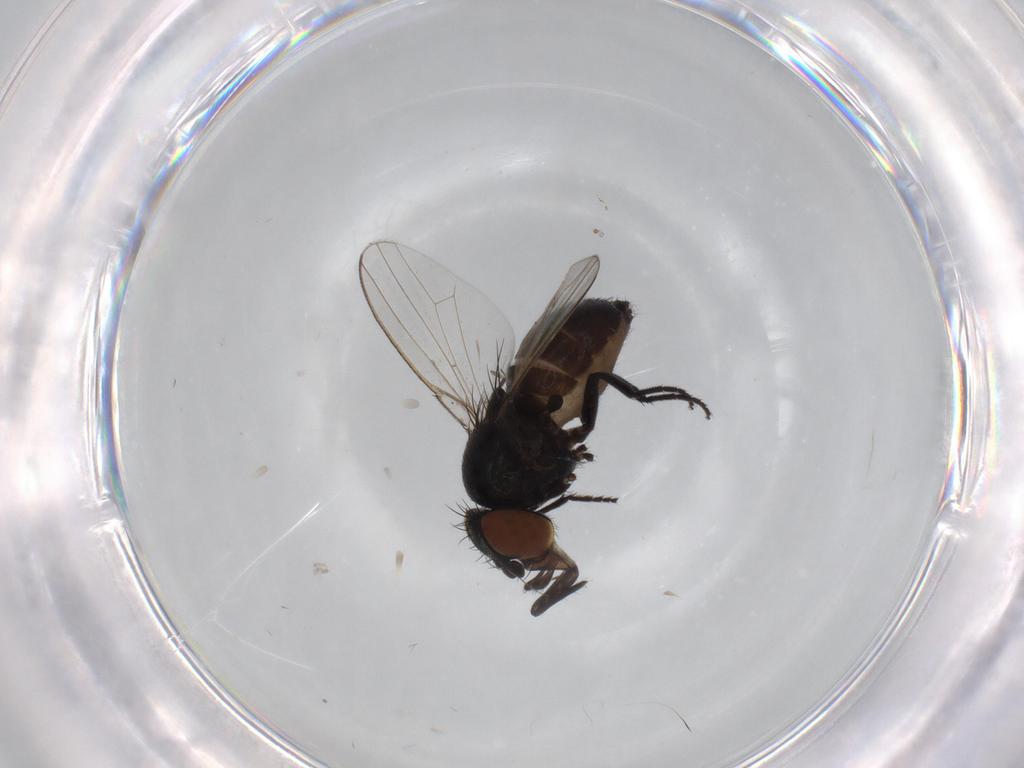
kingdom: Animalia
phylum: Arthropoda
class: Insecta
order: Diptera
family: Milichiidae
